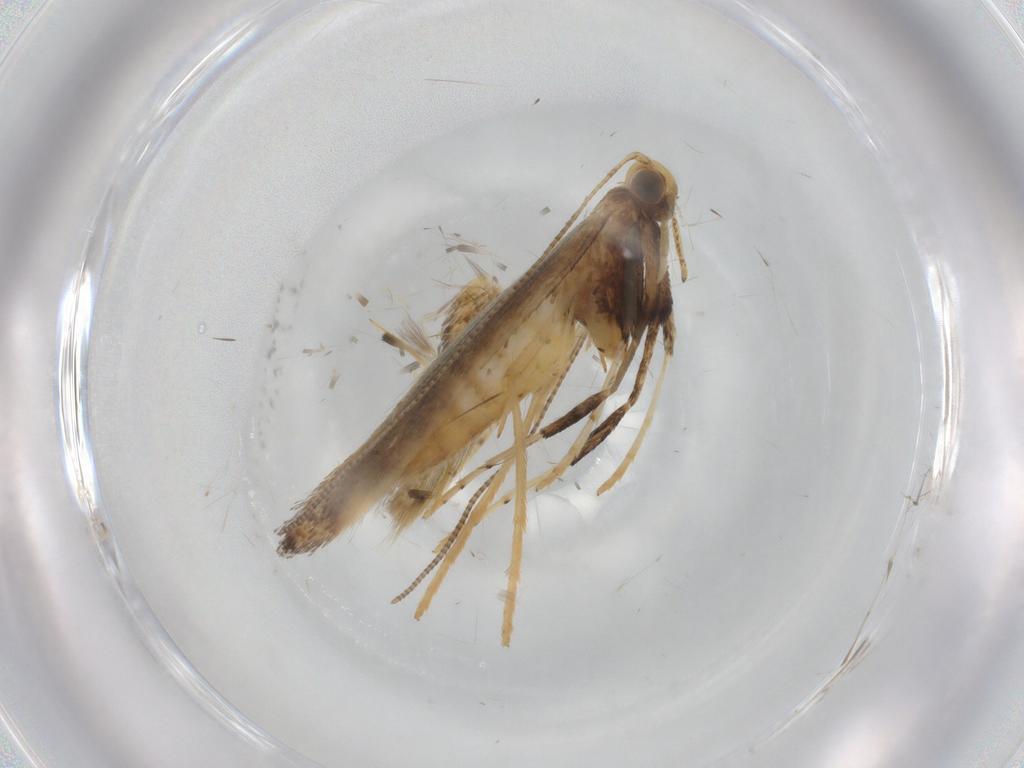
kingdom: Animalia
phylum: Arthropoda
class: Insecta
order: Lepidoptera
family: Gracillariidae
